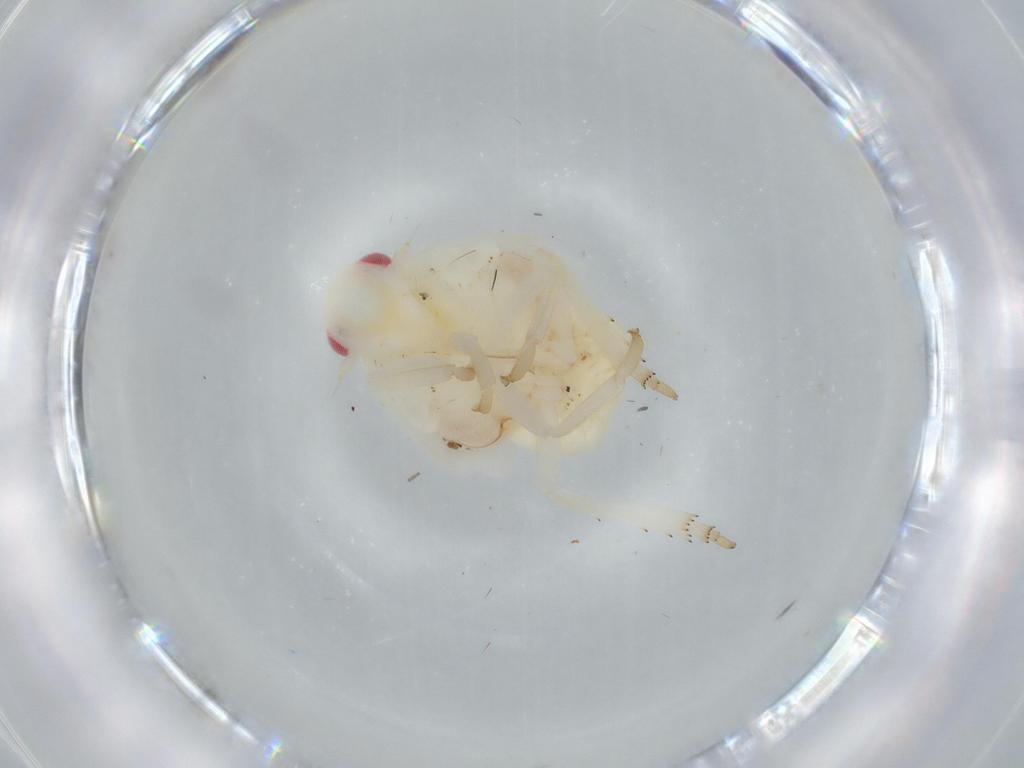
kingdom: Animalia
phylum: Arthropoda
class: Insecta
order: Hemiptera
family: Flatidae
